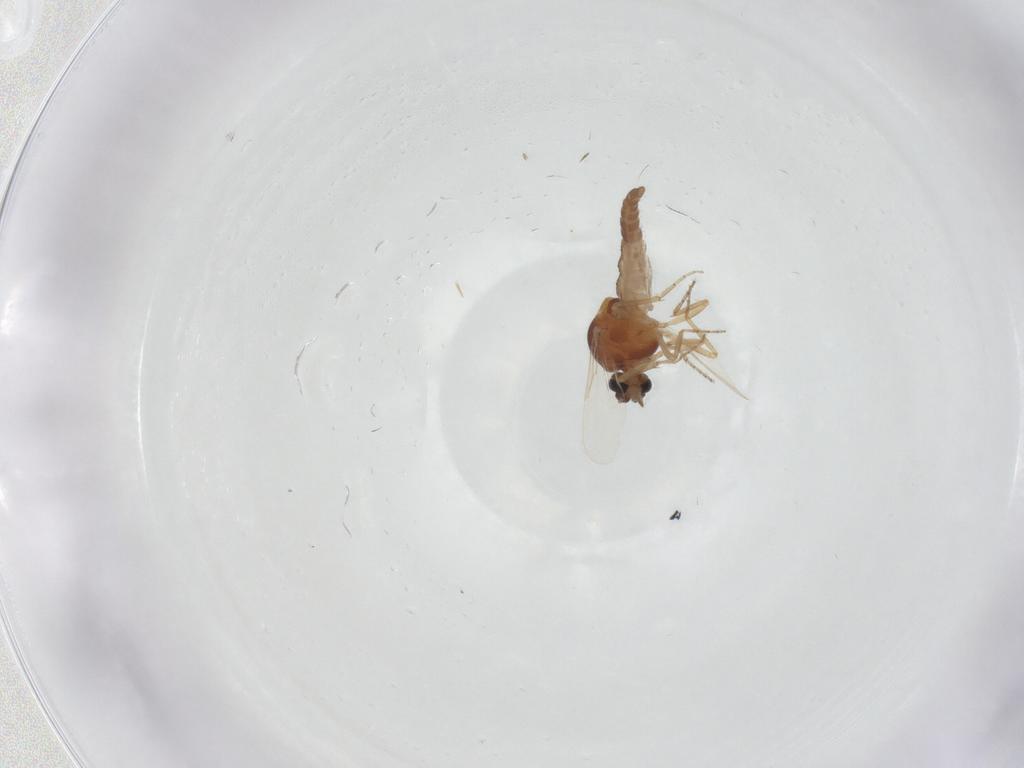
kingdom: Animalia
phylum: Arthropoda
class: Insecta
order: Diptera
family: Ceratopogonidae
